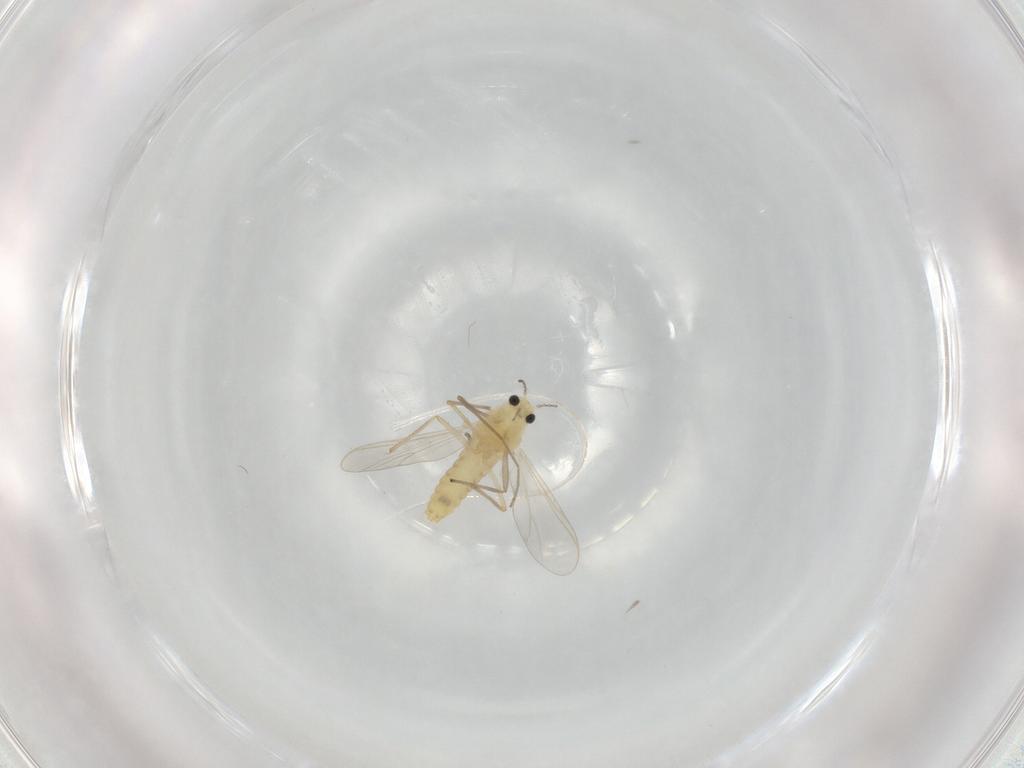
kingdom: Animalia
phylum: Arthropoda
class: Insecta
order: Diptera
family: Chironomidae
